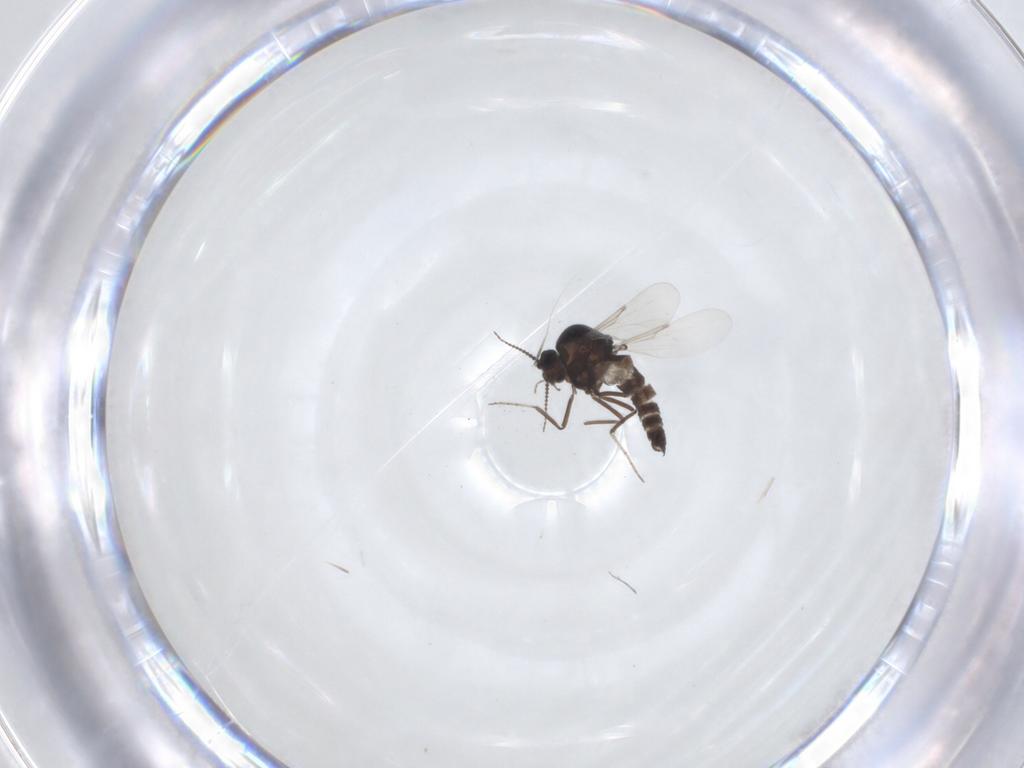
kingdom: Animalia
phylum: Arthropoda
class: Insecta
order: Diptera
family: Ceratopogonidae
